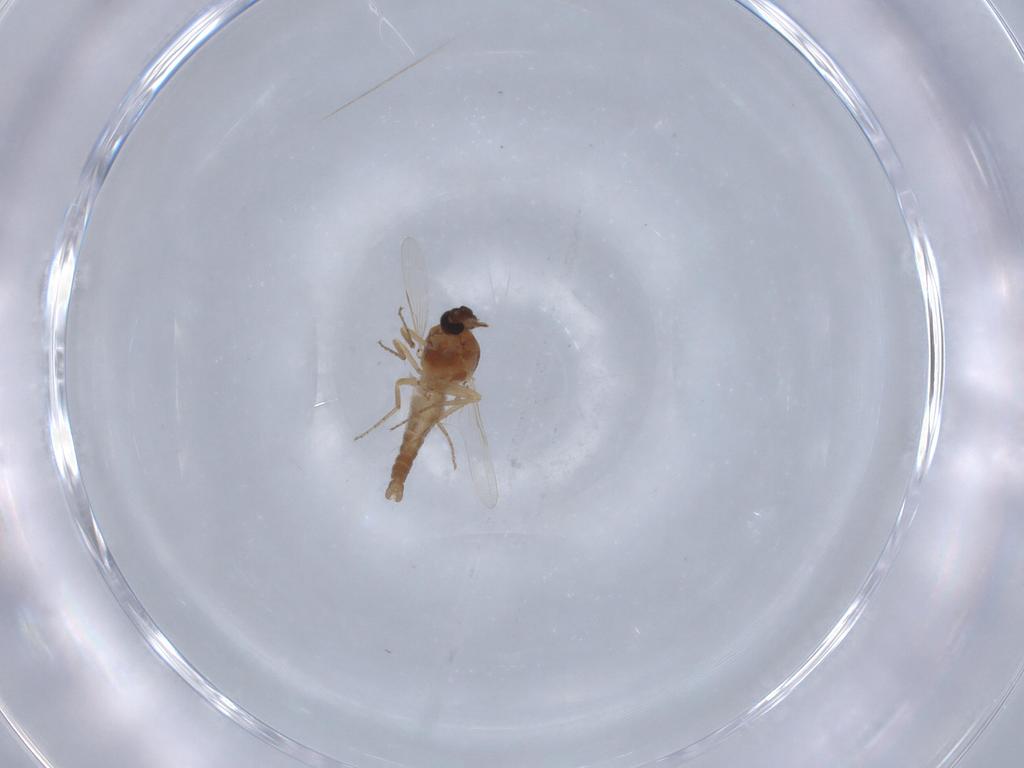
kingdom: Animalia
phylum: Arthropoda
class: Insecta
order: Diptera
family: Ceratopogonidae
